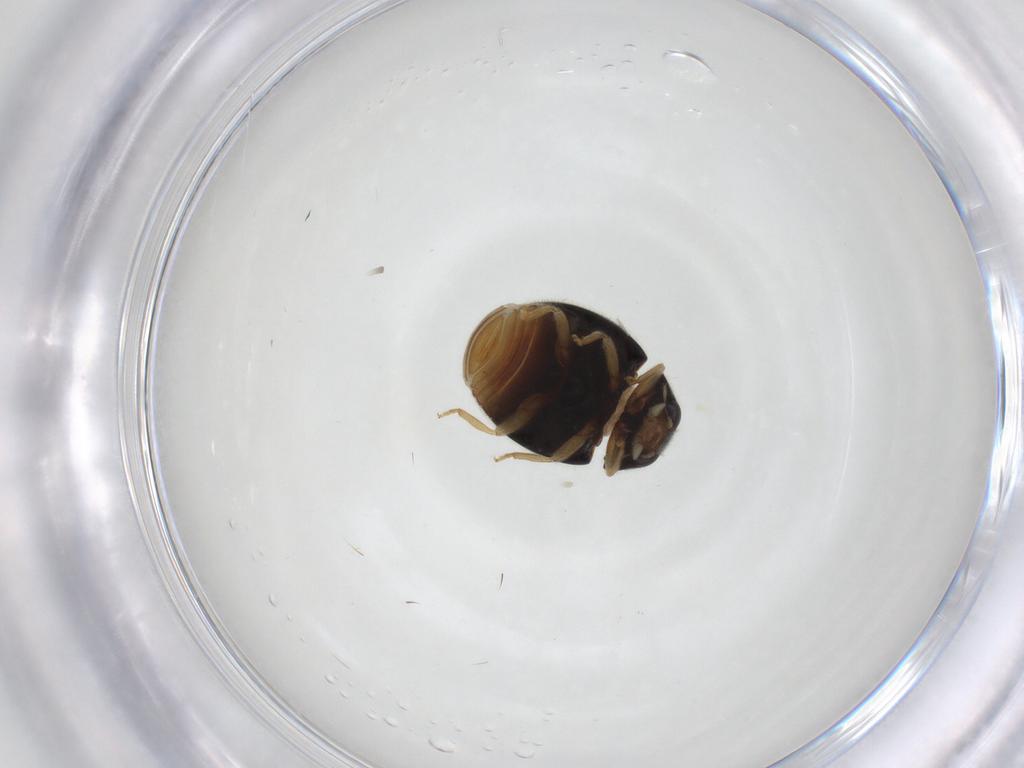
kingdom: Animalia
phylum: Arthropoda
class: Insecta
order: Coleoptera
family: Coccinellidae
